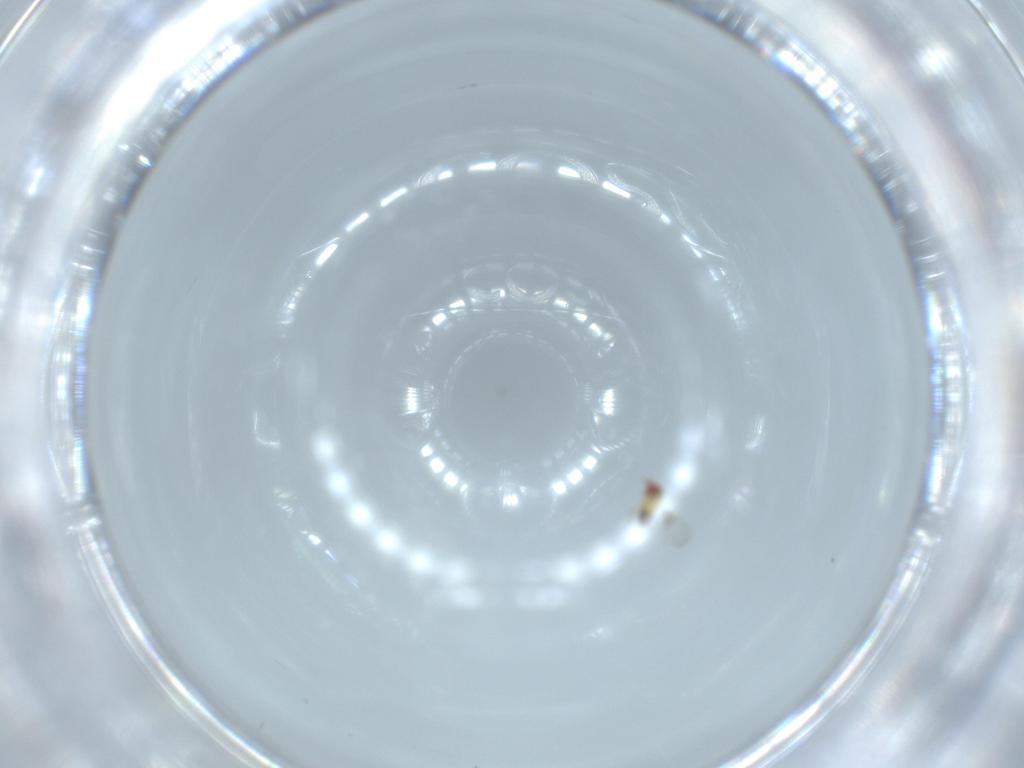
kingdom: Animalia
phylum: Arthropoda
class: Insecta
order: Hymenoptera
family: Trichogrammatidae
